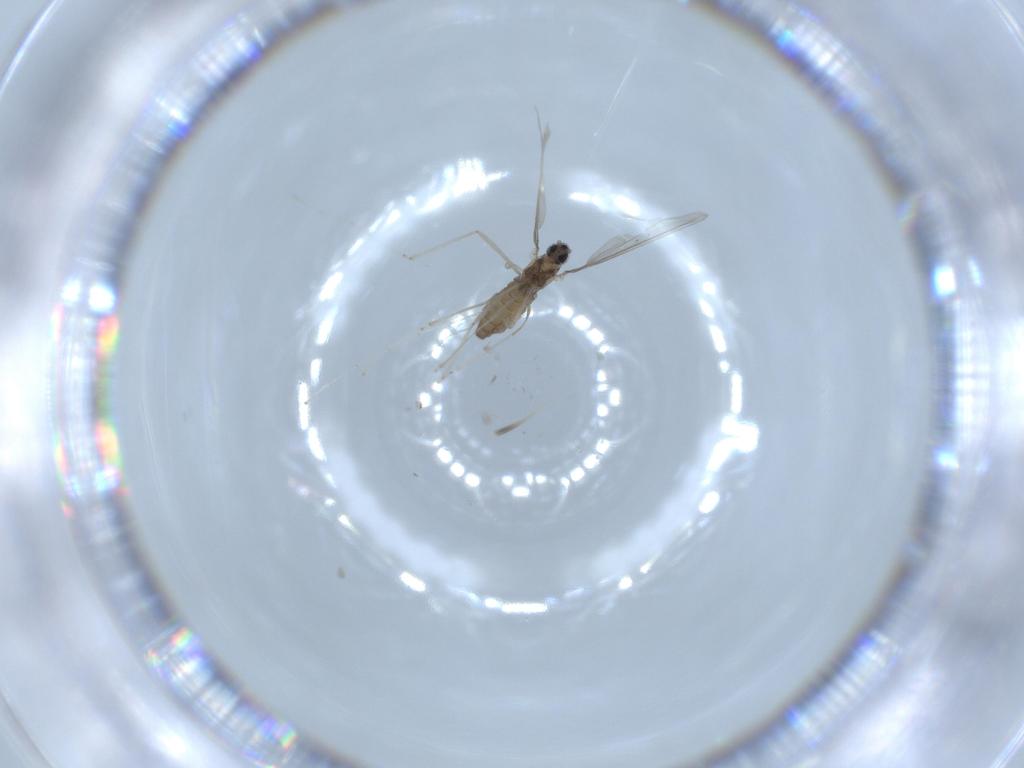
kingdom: Animalia
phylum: Arthropoda
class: Insecta
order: Diptera
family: Cecidomyiidae
